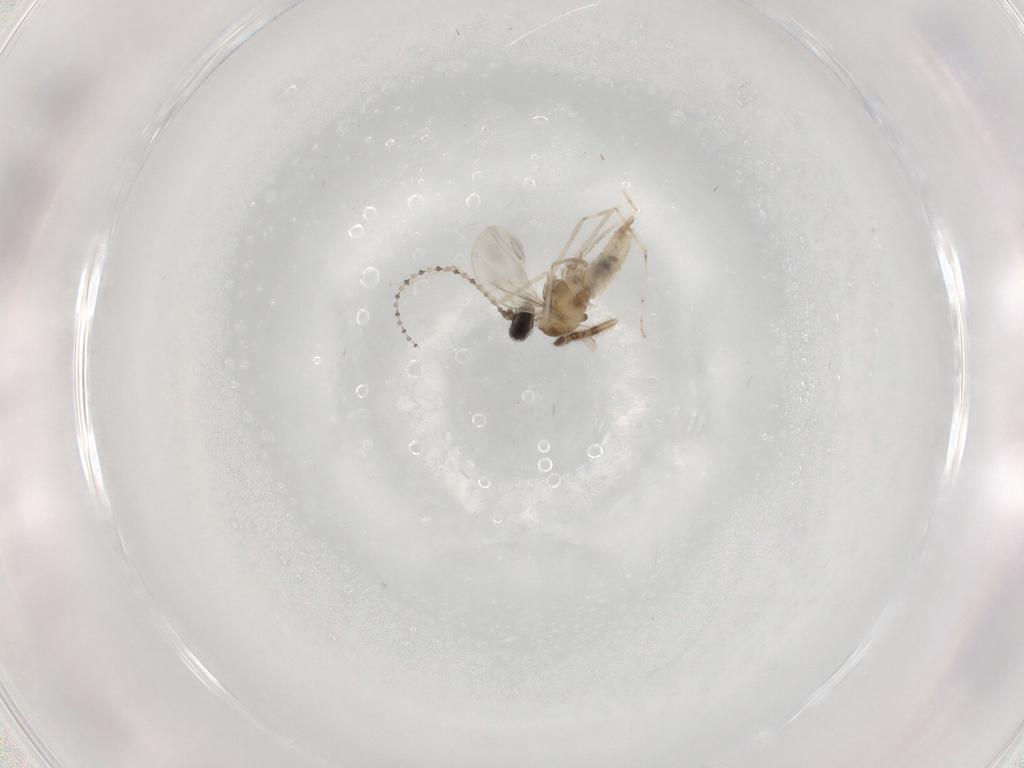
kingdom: Animalia
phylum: Arthropoda
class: Insecta
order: Diptera
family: Cecidomyiidae
